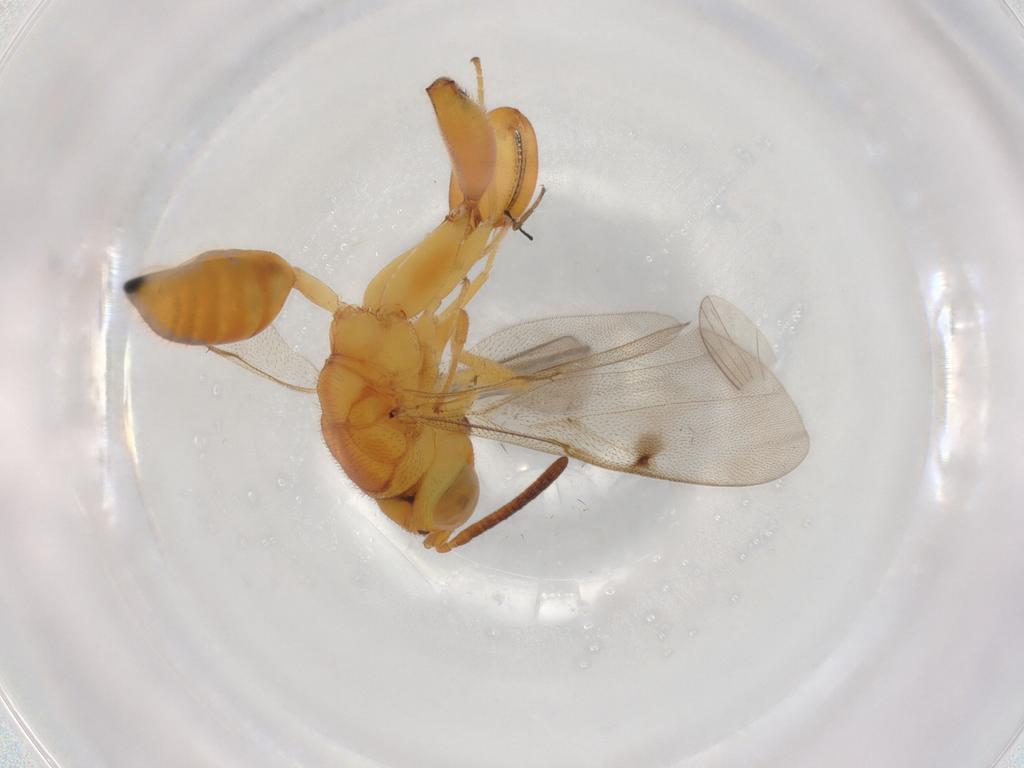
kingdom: Animalia
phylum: Arthropoda
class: Insecta
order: Hymenoptera
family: Chalcididae
